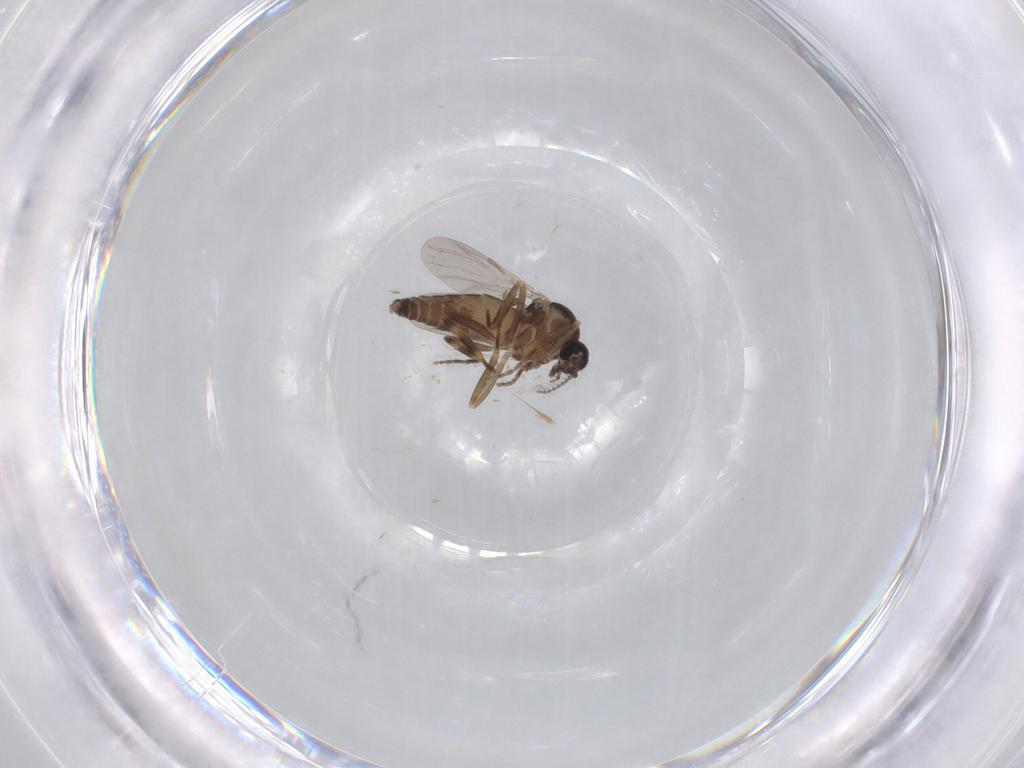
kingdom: Animalia
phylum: Arthropoda
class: Insecta
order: Diptera
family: Ceratopogonidae
